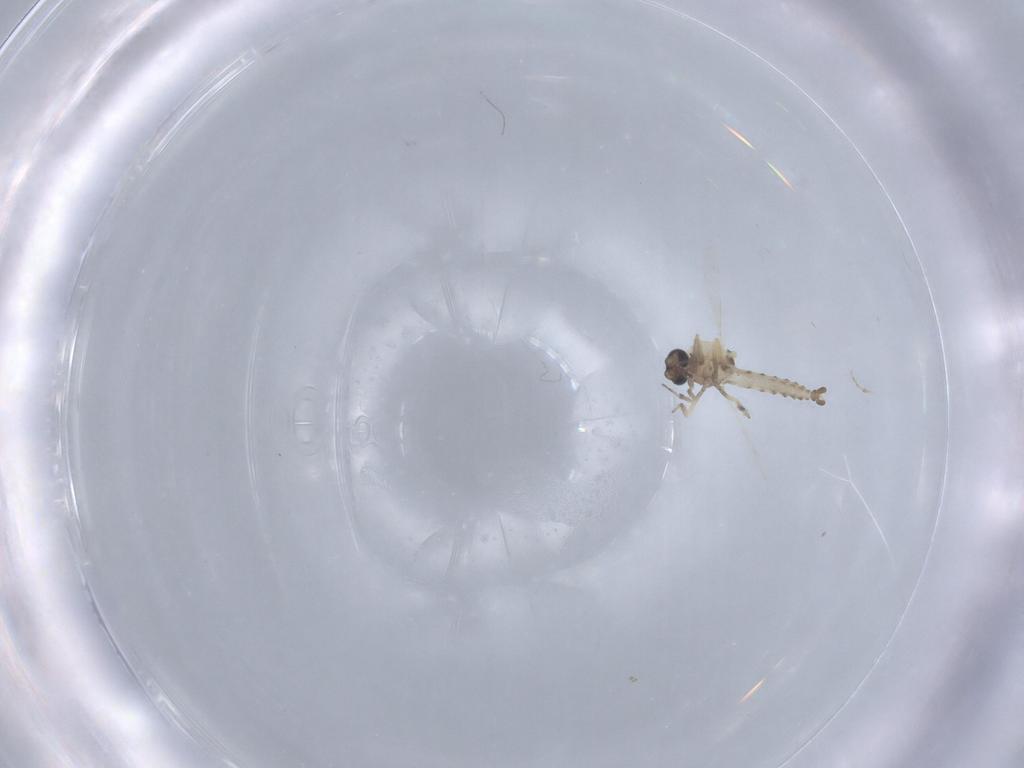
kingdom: Animalia
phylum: Arthropoda
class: Insecta
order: Diptera
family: Ceratopogonidae
